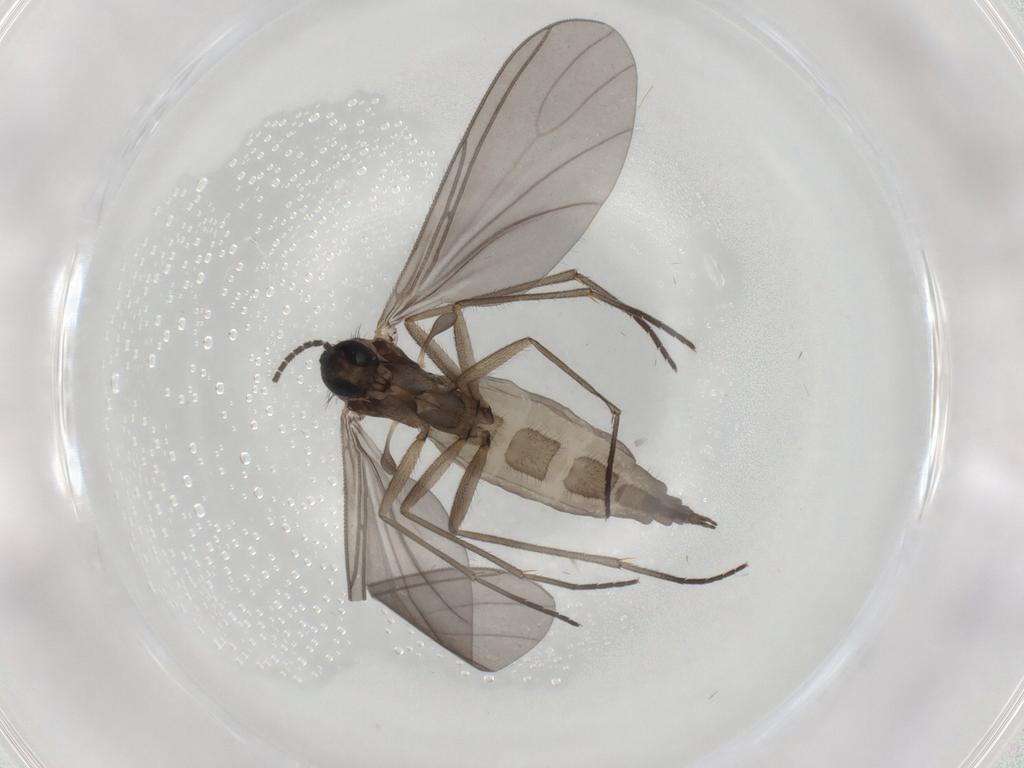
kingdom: Animalia
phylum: Arthropoda
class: Insecta
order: Diptera
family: Sciaridae
